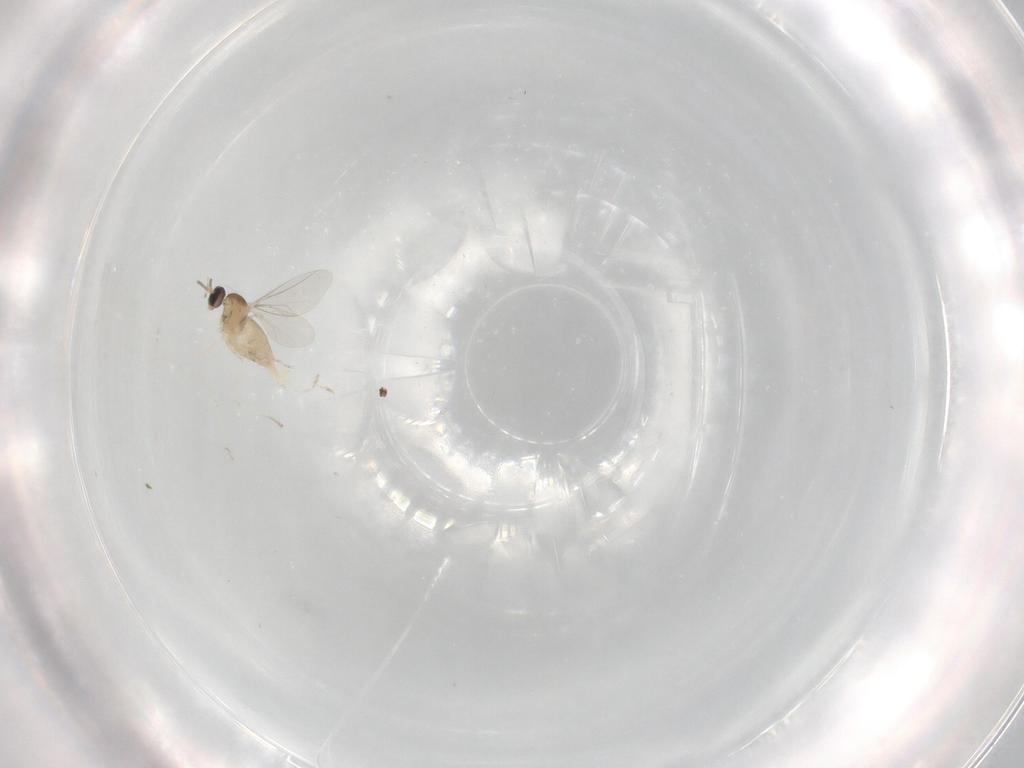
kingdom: Animalia
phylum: Arthropoda
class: Insecta
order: Diptera
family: Cecidomyiidae
